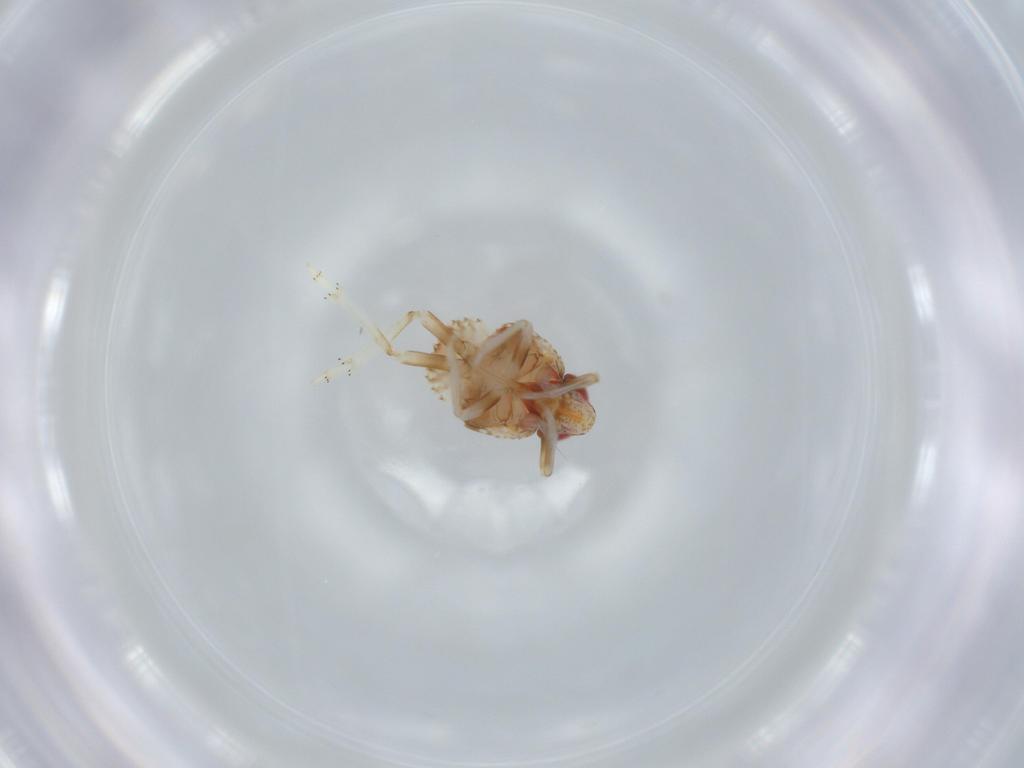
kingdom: Animalia
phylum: Arthropoda
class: Insecta
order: Hemiptera
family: Issidae
